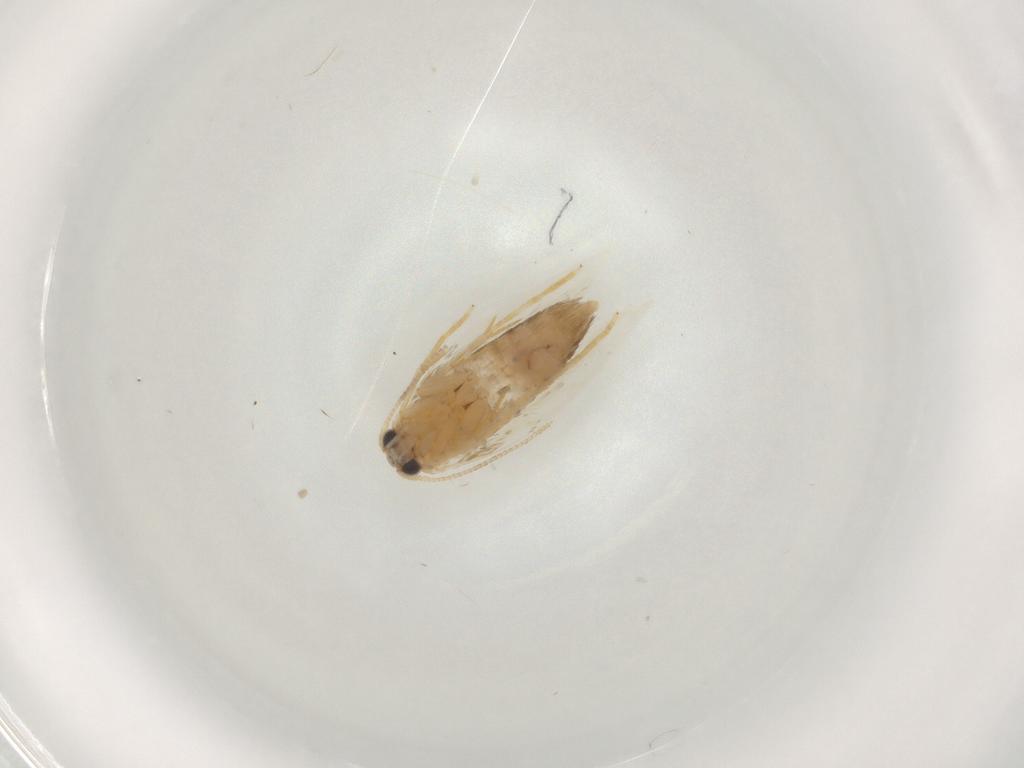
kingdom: Animalia
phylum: Arthropoda
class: Insecta
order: Lepidoptera
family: Nepticulidae
